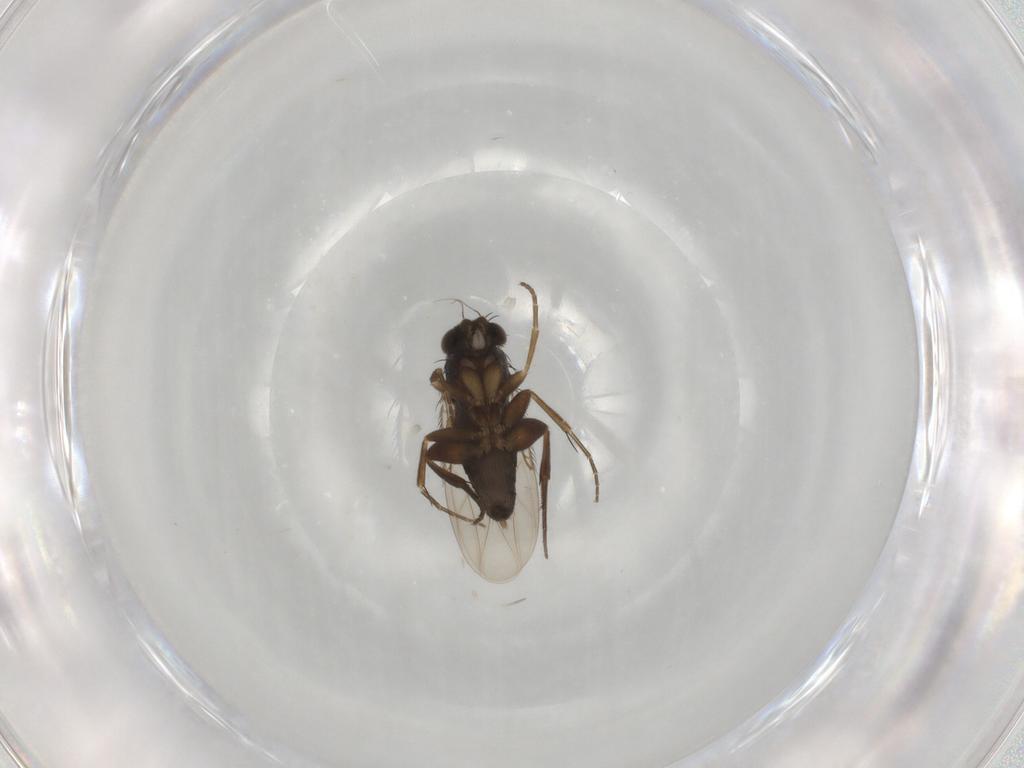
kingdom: Animalia
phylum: Arthropoda
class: Insecta
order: Diptera
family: Phoridae
